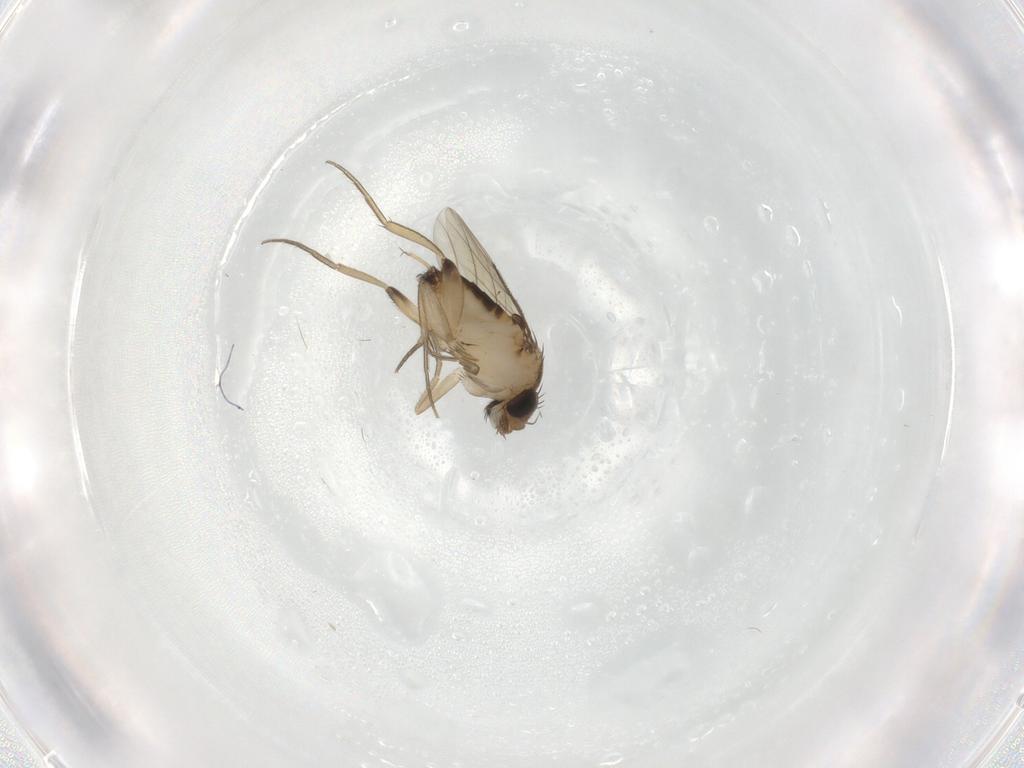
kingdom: Animalia
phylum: Arthropoda
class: Insecta
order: Diptera
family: Phoridae
